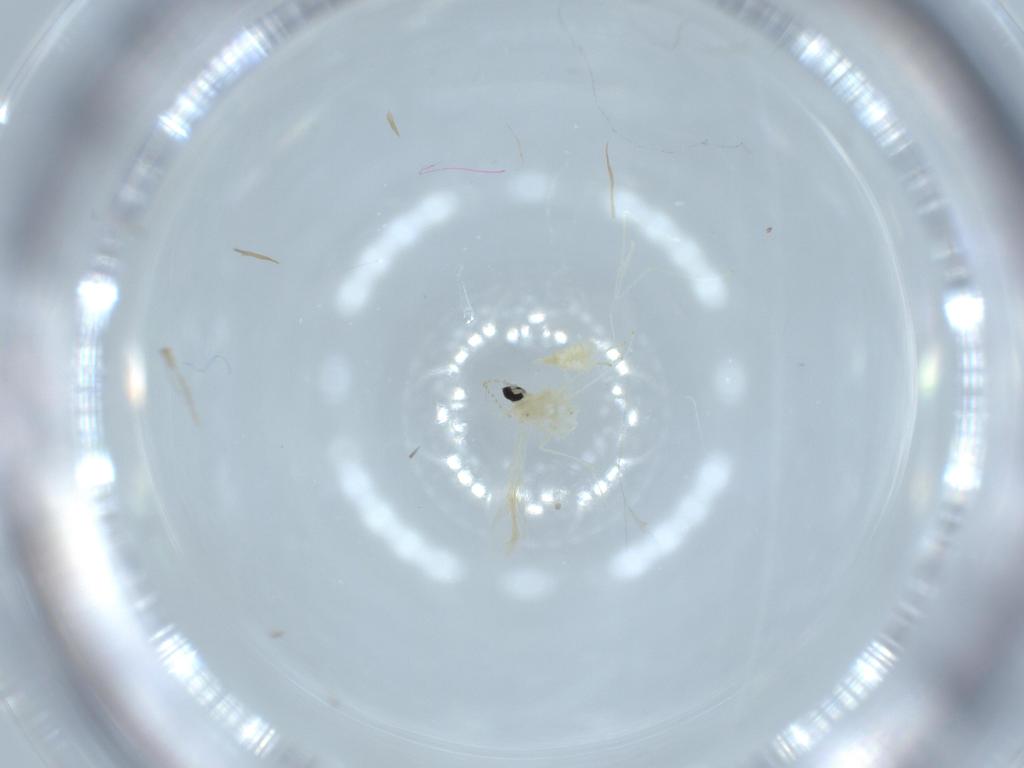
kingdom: Animalia
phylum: Arthropoda
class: Insecta
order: Diptera
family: Cecidomyiidae
